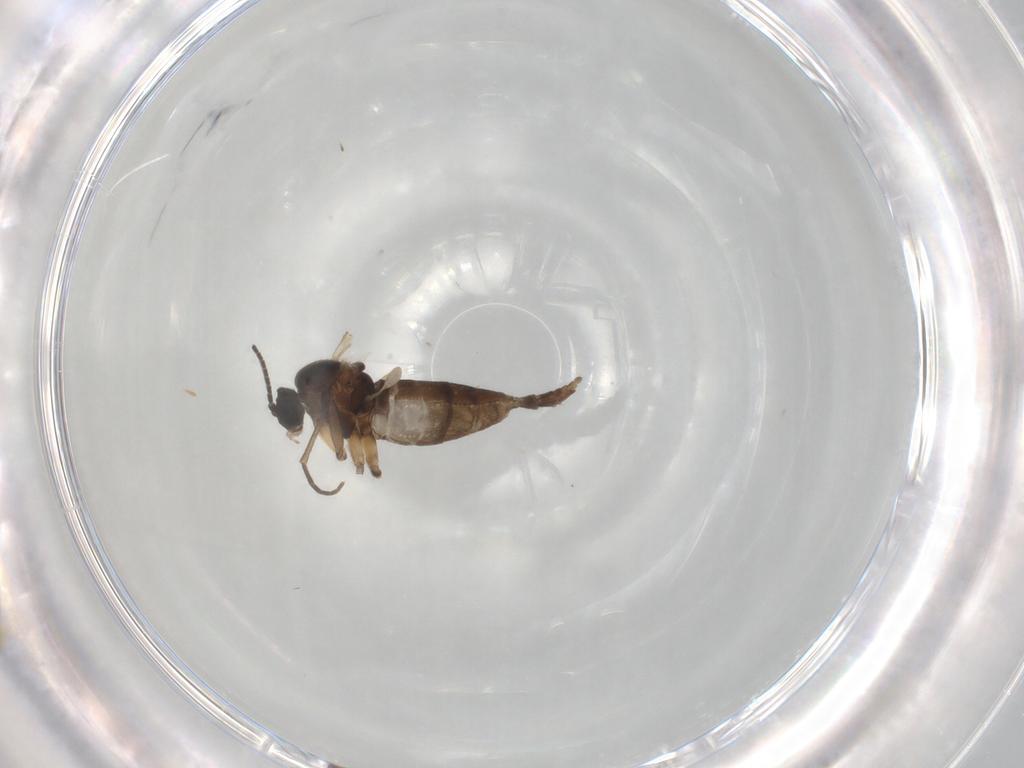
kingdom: Animalia
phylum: Arthropoda
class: Insecta
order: Diptera
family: Sciaridae
